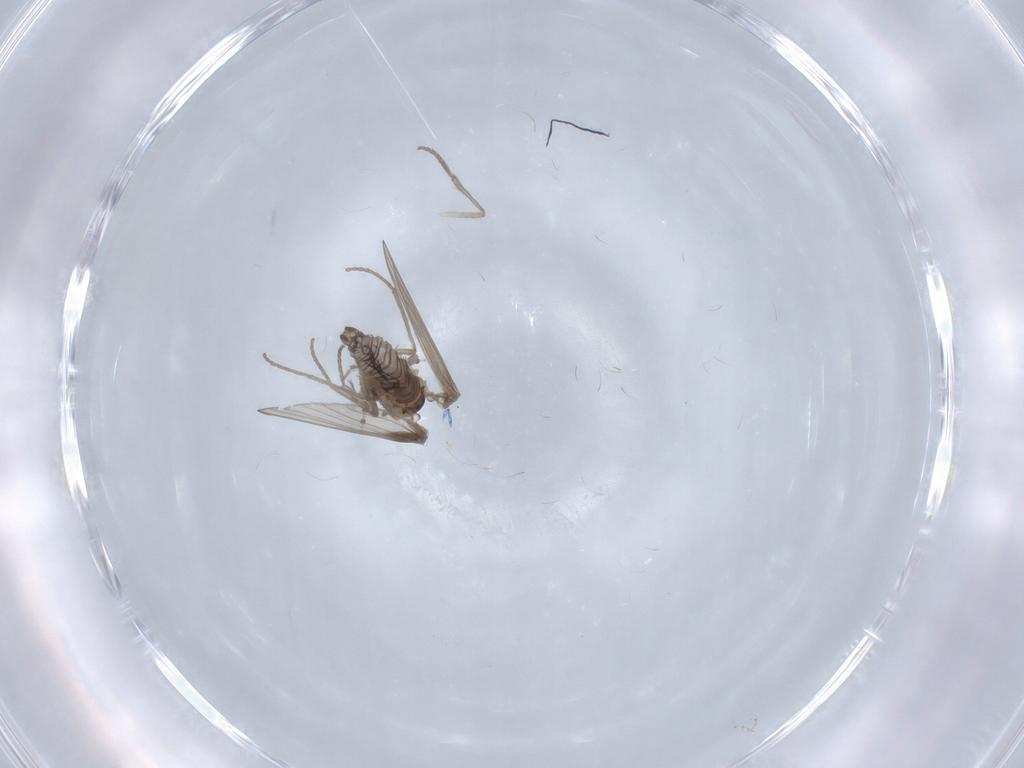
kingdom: Animalia
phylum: Arthropoda
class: Insecta
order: Diptera
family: Psychodidae
